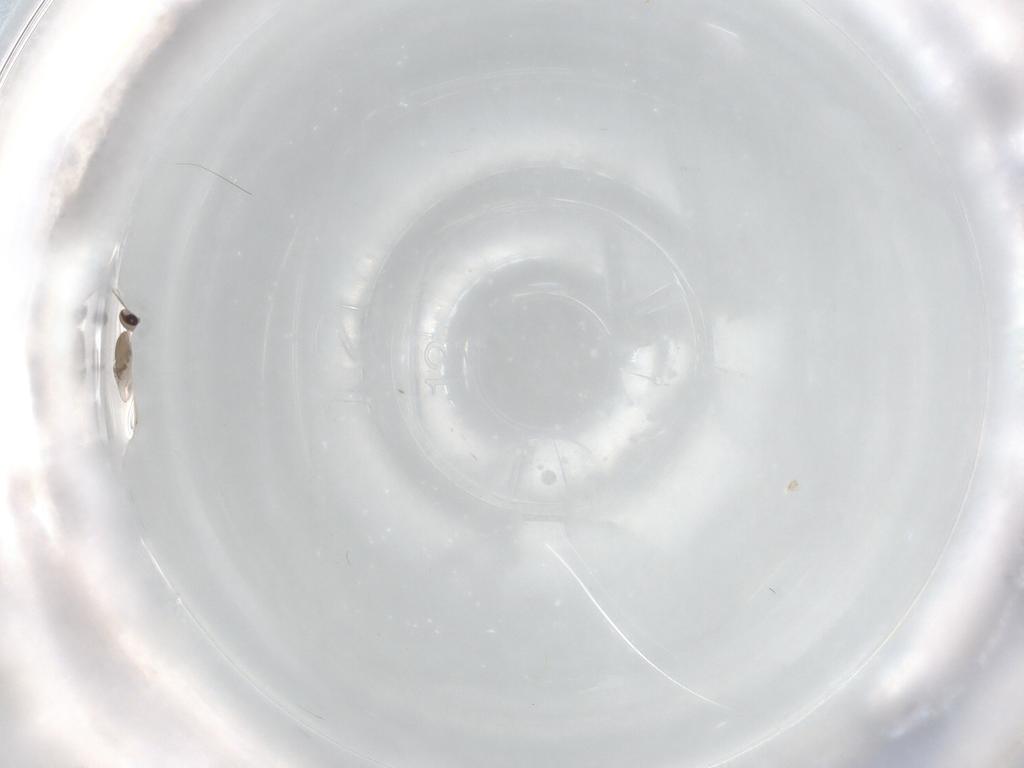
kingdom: Animalia
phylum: Arthropoda
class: Insecta
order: Diptera
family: Cecidomyiidae
